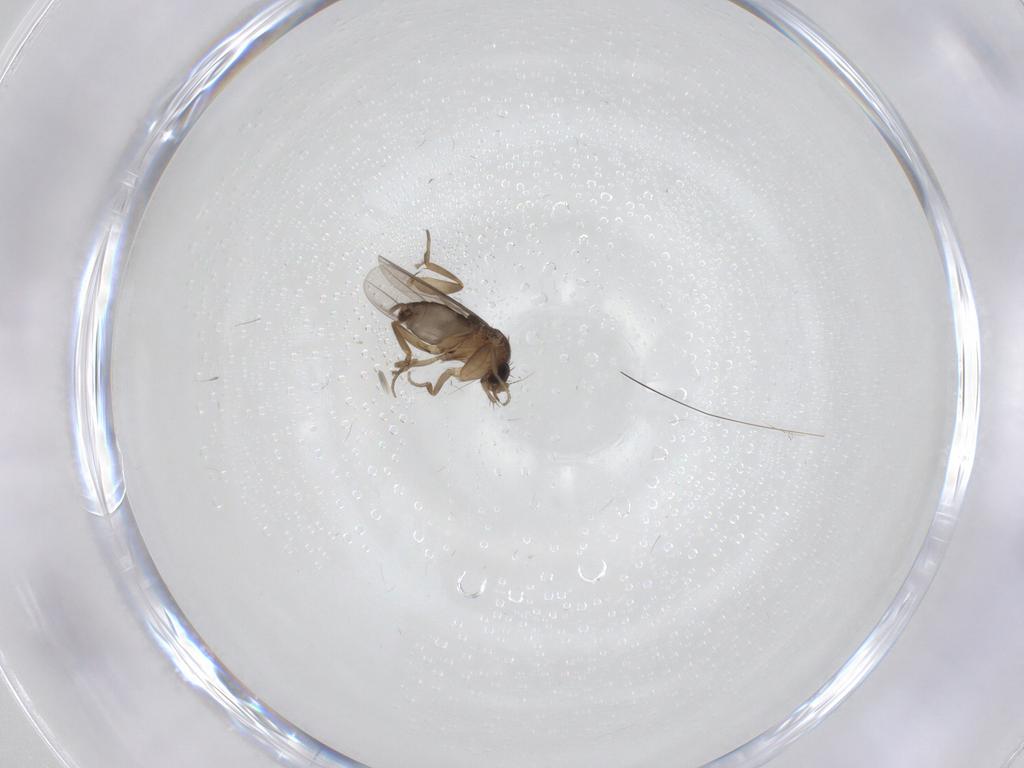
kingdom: Animalia
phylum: Arthropoda
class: Insecta
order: Diptera
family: Phoridae
